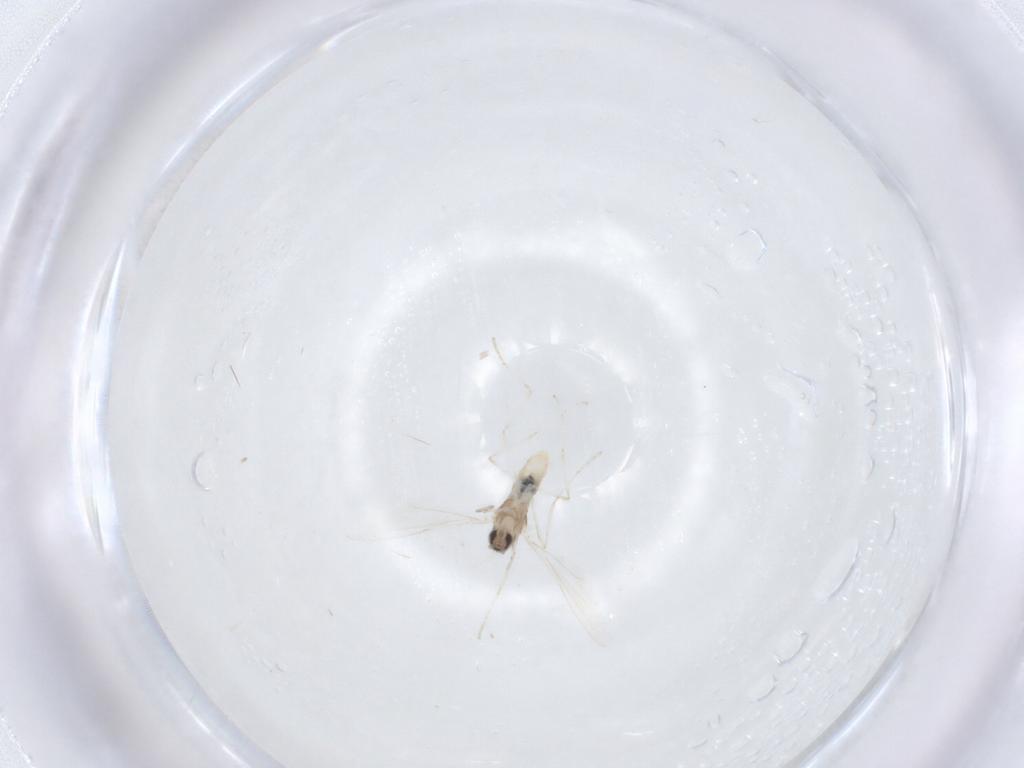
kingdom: Animalia
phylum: Arthropoda
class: Insecta
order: Diptera
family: Cecidomyiidae
